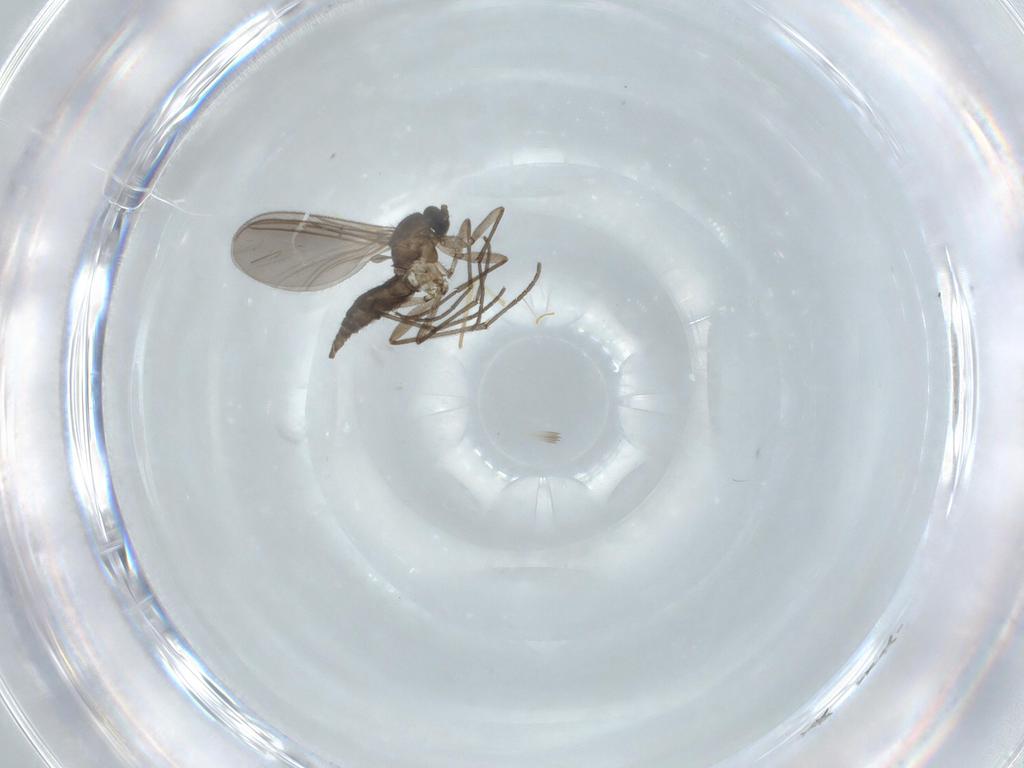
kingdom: Animalia
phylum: Arthropoda
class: Insecta
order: Diptera
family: Sciaridae
